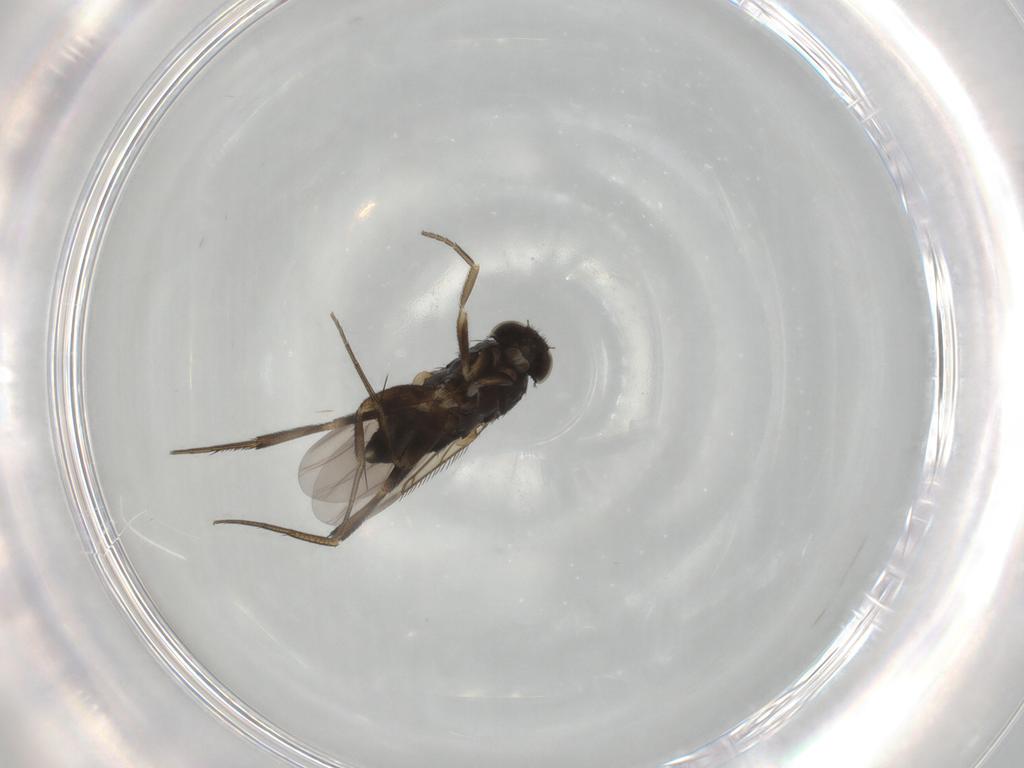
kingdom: Animalia
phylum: Arthropoda
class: Insecta
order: Diptera
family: Phoridae
